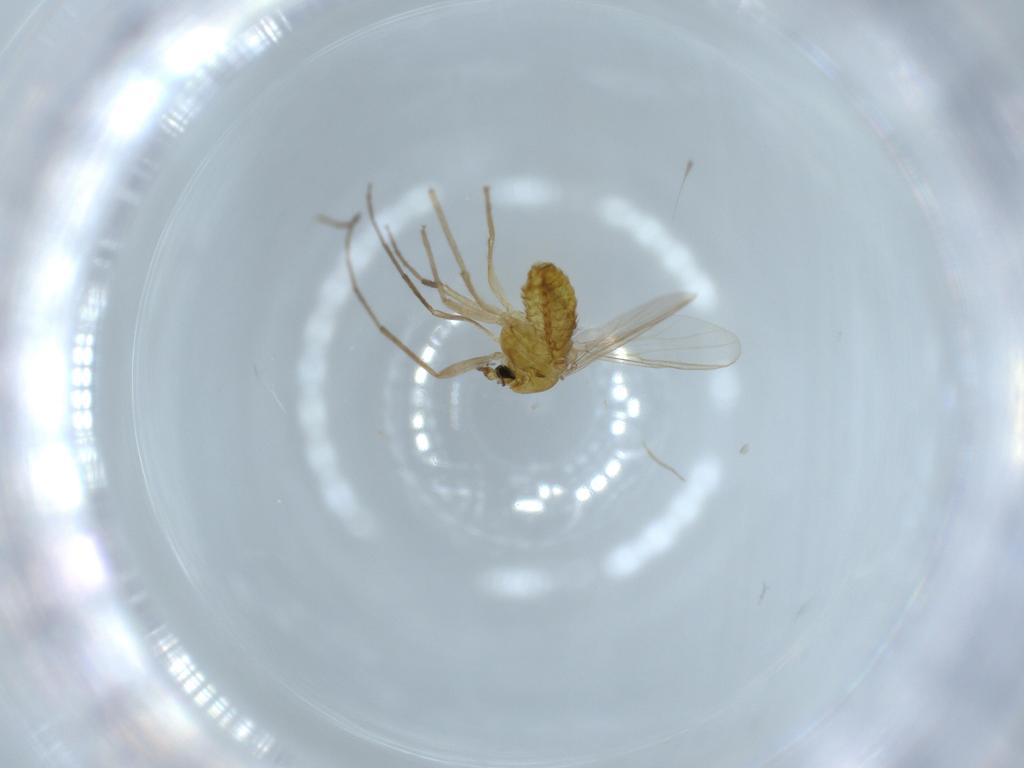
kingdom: Animalia
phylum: Arthropoda
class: Insecta
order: Diptera
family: Chironomidae
